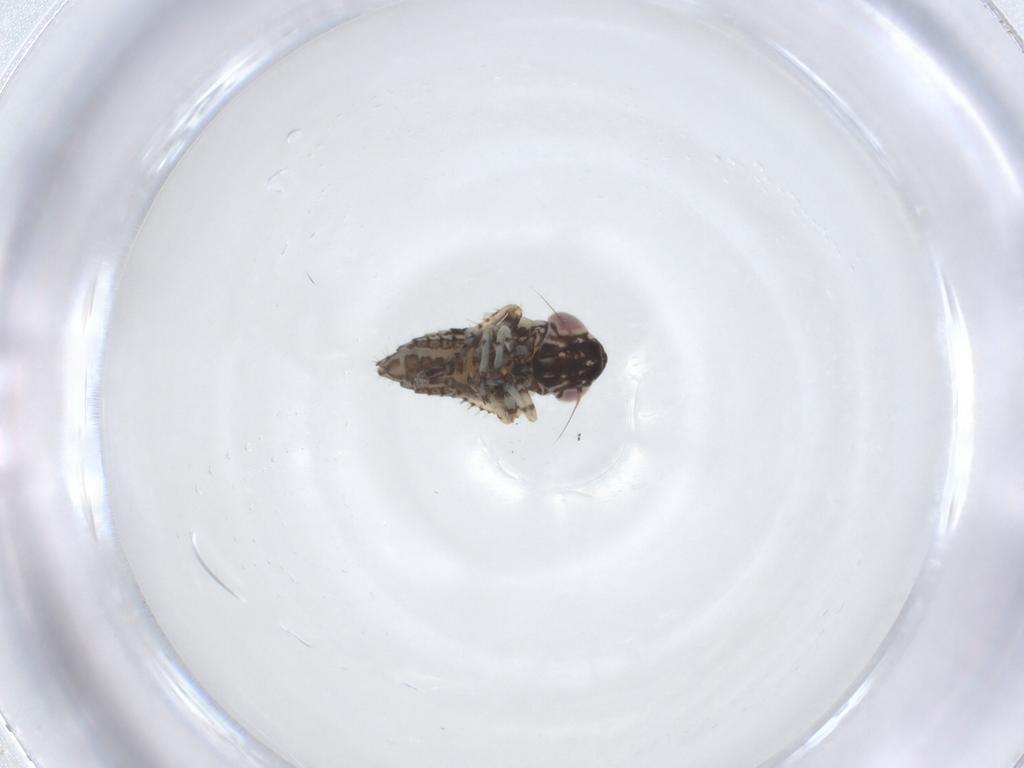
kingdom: Animalia
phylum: Arthropoda
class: Insecta
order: Hemiptera
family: Cicadellidae
